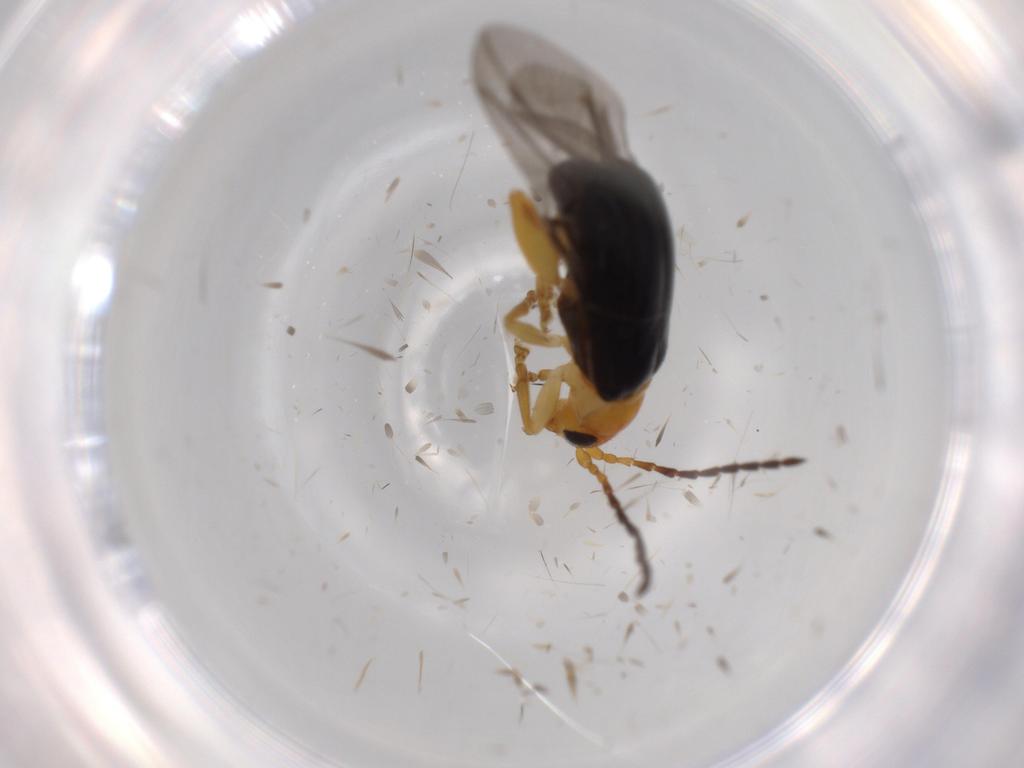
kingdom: Animalia
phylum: Arthropoda
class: Insecta
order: Coleoptera
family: Chrysomelidae
